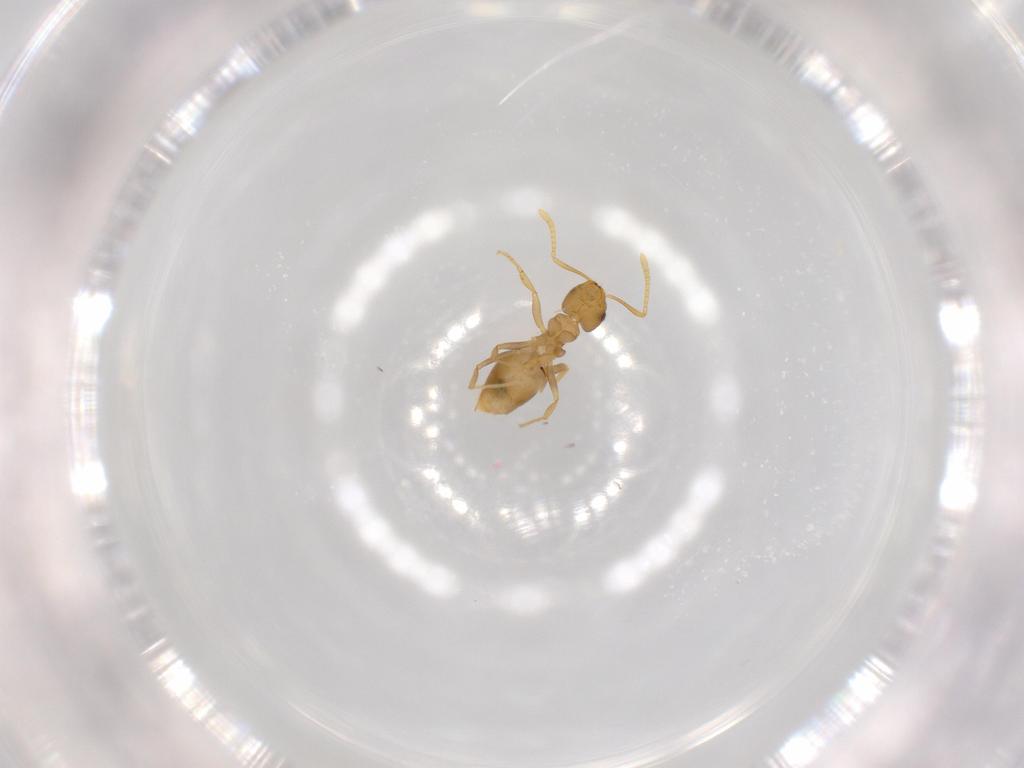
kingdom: Animalia
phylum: Arthropoda
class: Insecta
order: Hymenoptera
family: Formicidae
